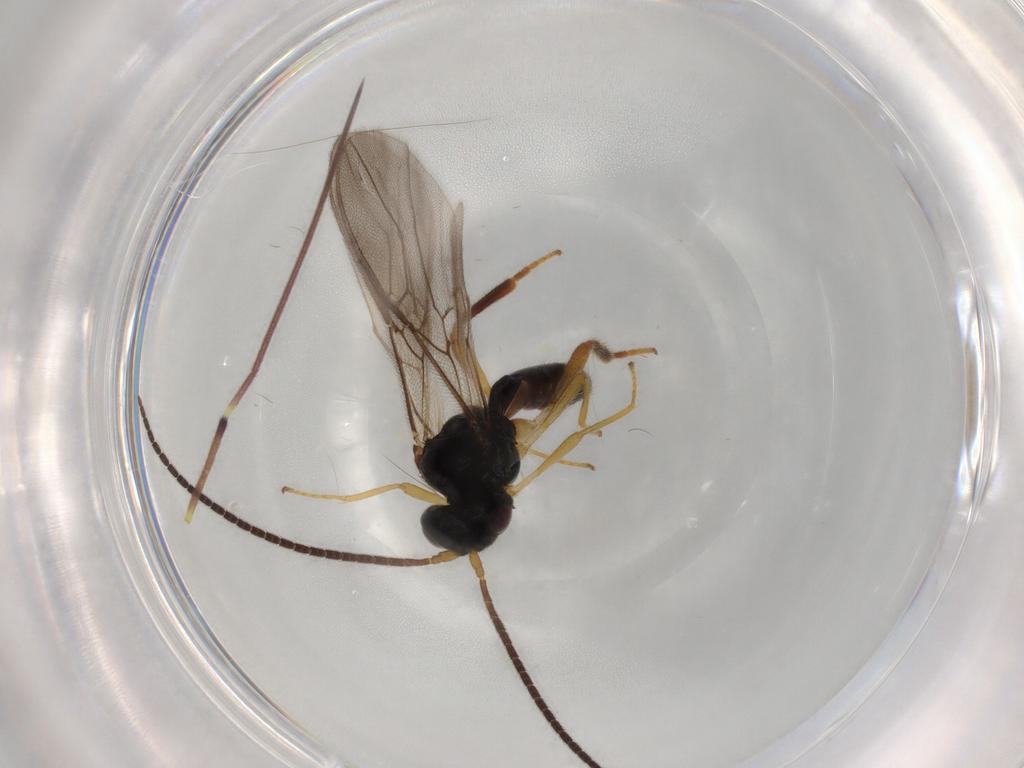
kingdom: Animalia
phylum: Arthropoda
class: Insecta
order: Hymenoptera
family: Braconidae
